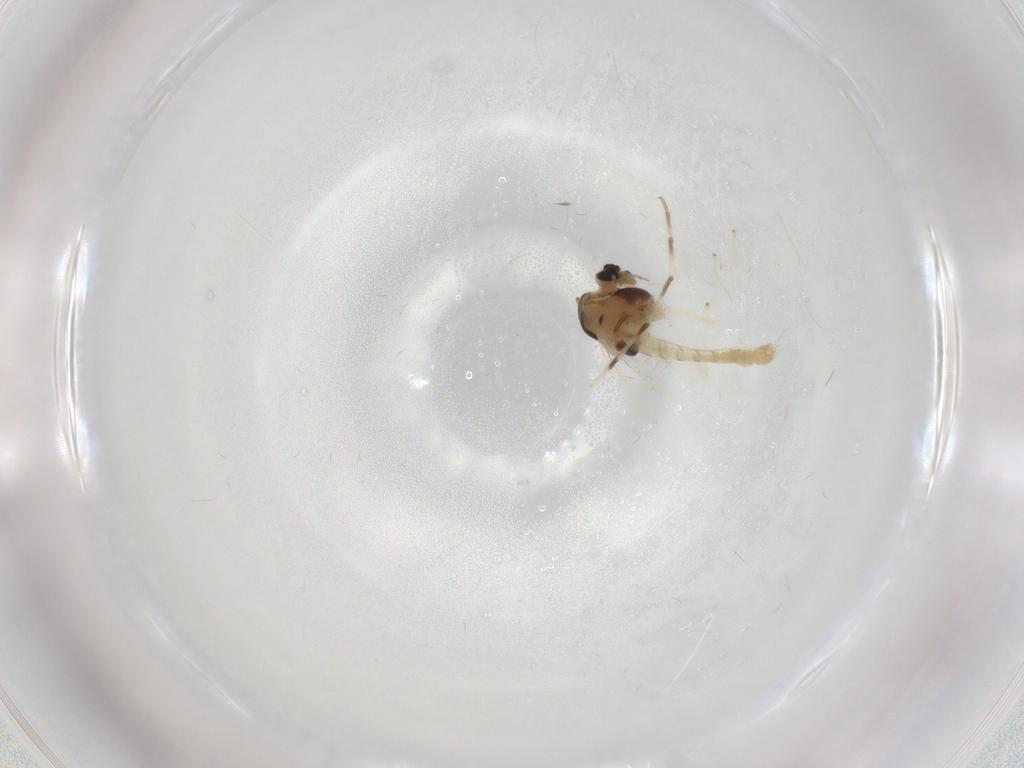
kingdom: Animalia
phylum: Arthropoda
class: Insecta
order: Diptera
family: Chironomidae
